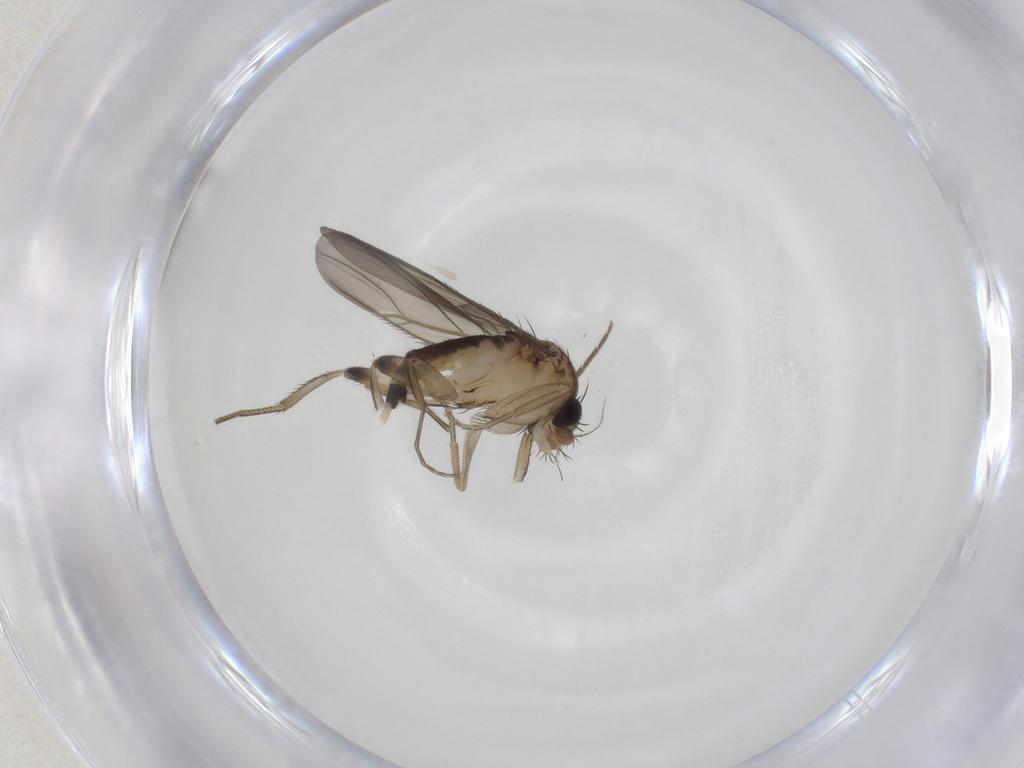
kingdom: Animalia
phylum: Arthropoda
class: Insecta
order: Diptera
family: Phoridae
